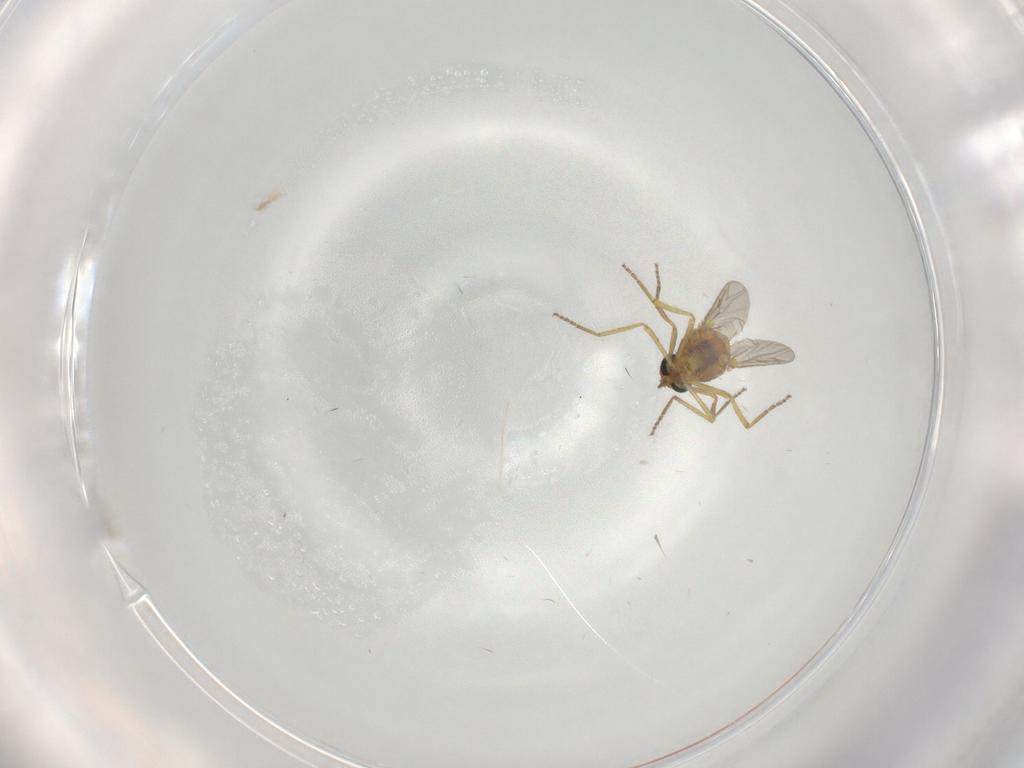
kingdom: Animalia
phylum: Arthropoda
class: Insecta
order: Diptera
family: Ceratopogonidae
